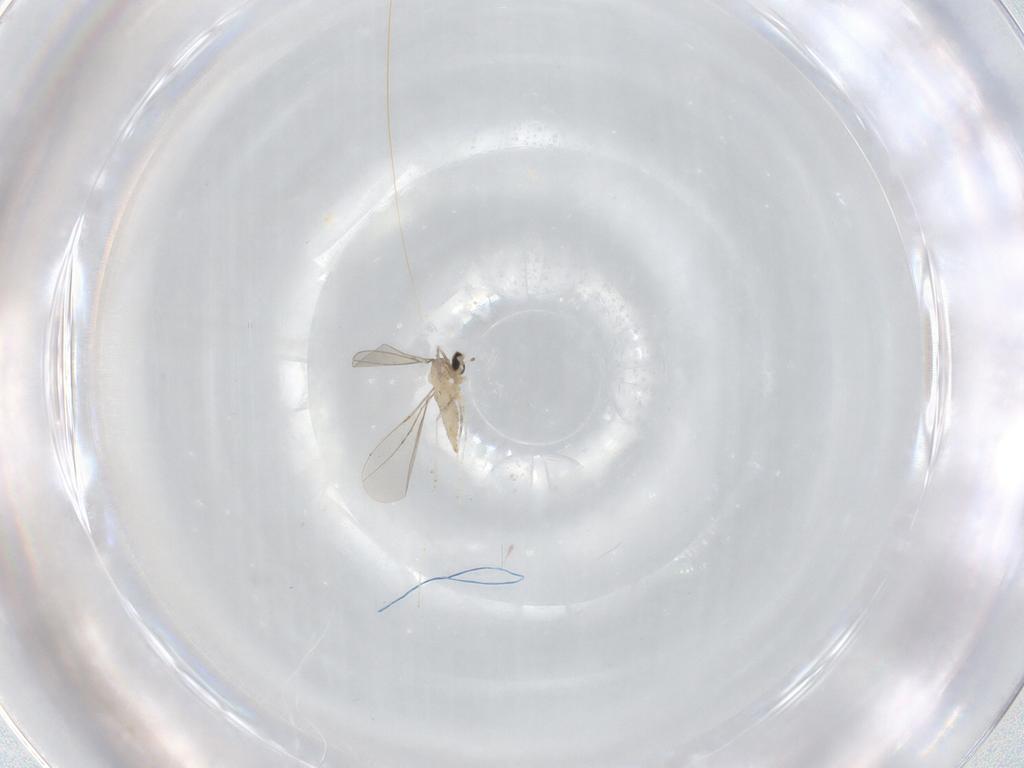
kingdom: Animalia
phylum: Arthropoda
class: Insecta
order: Diptera
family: Cecidomyiidae
